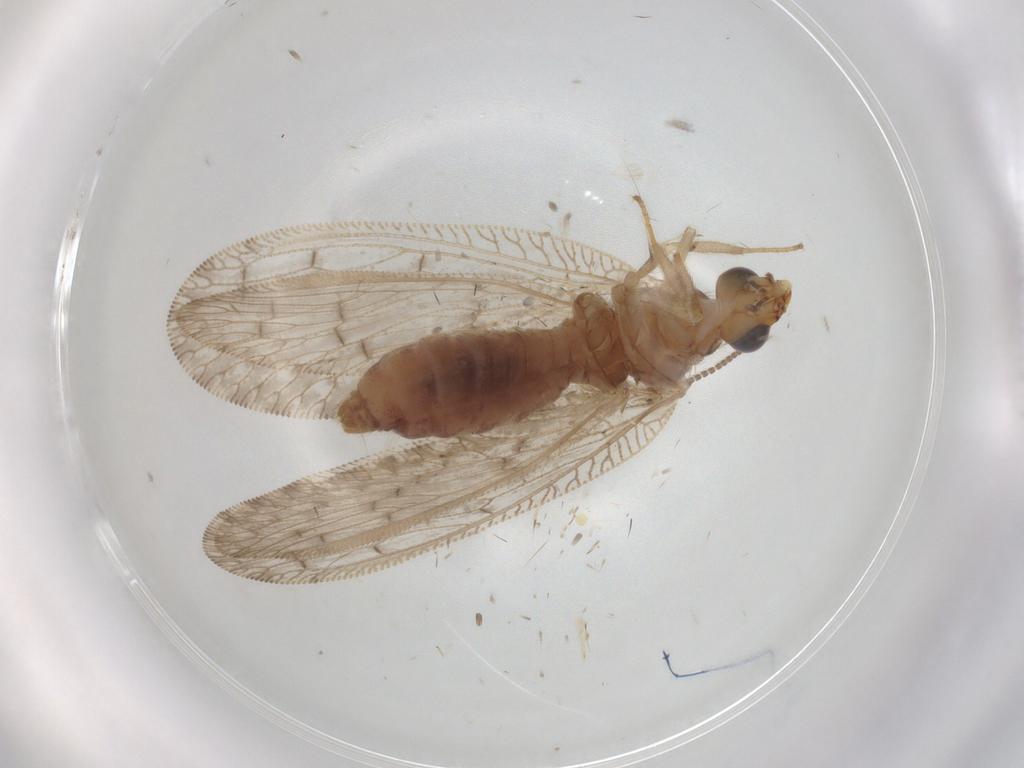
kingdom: Animalia
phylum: Arthropoda
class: Insecta
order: Neuroptera
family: Hemerobiidae
